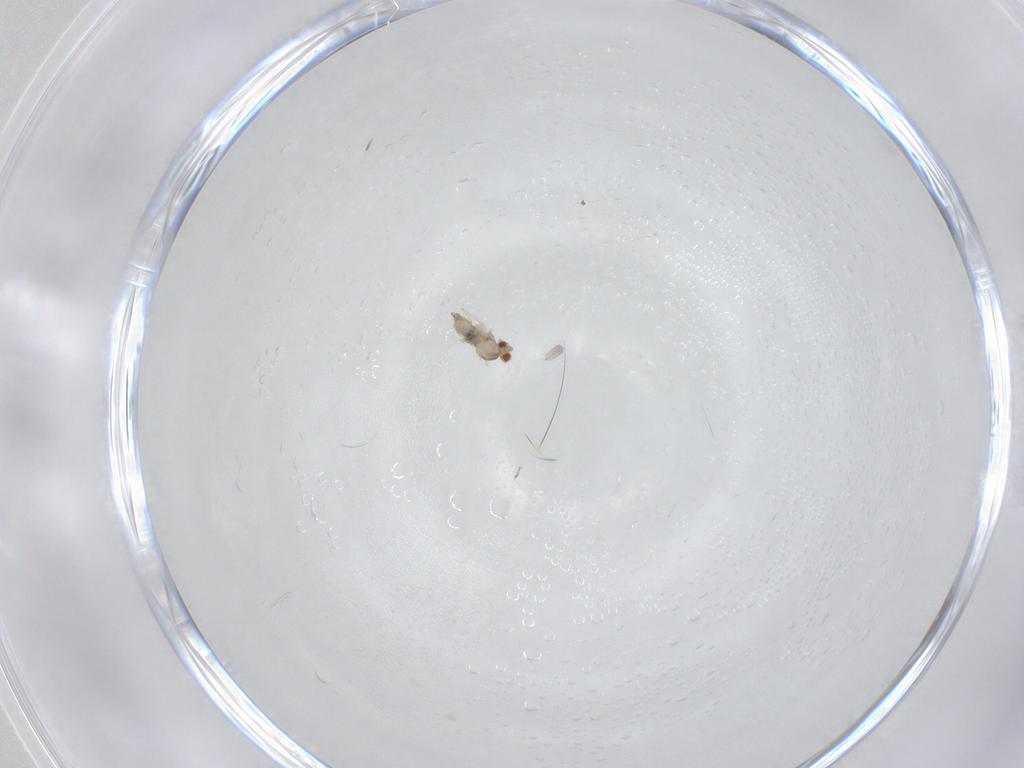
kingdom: Animalia
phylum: Arthropoda
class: Insecta
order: Diptera
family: Cecidomyiidae
